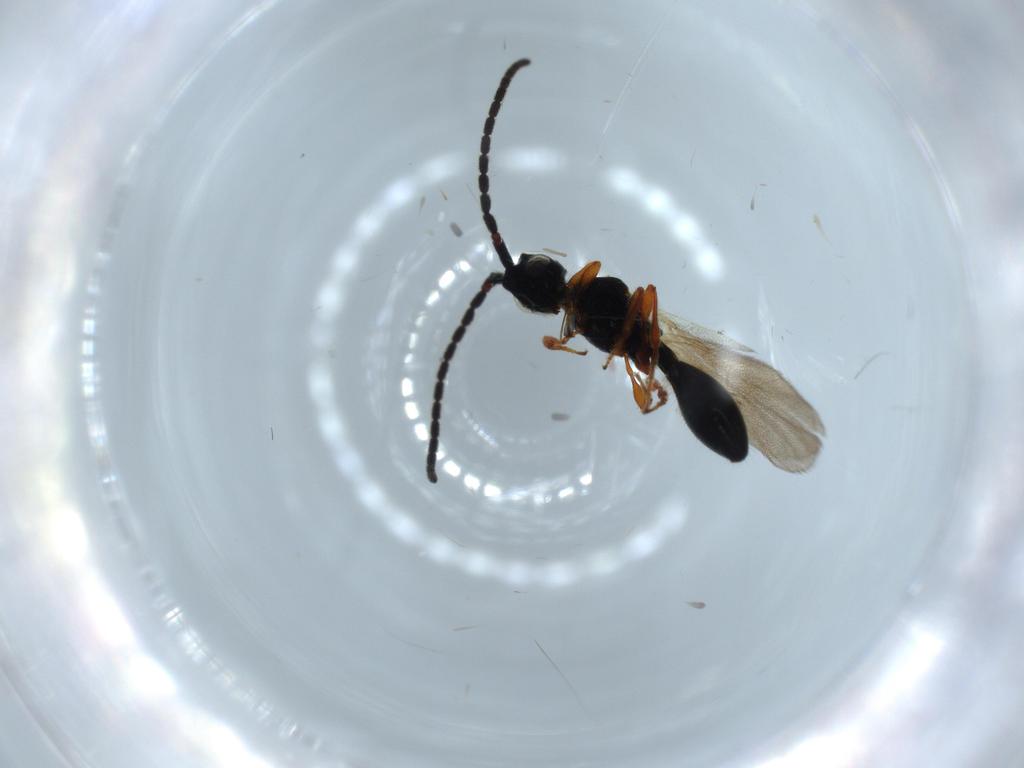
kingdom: Animalia
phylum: Arthropoda
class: Insecta
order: Hymenoptera
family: Diapriidae
